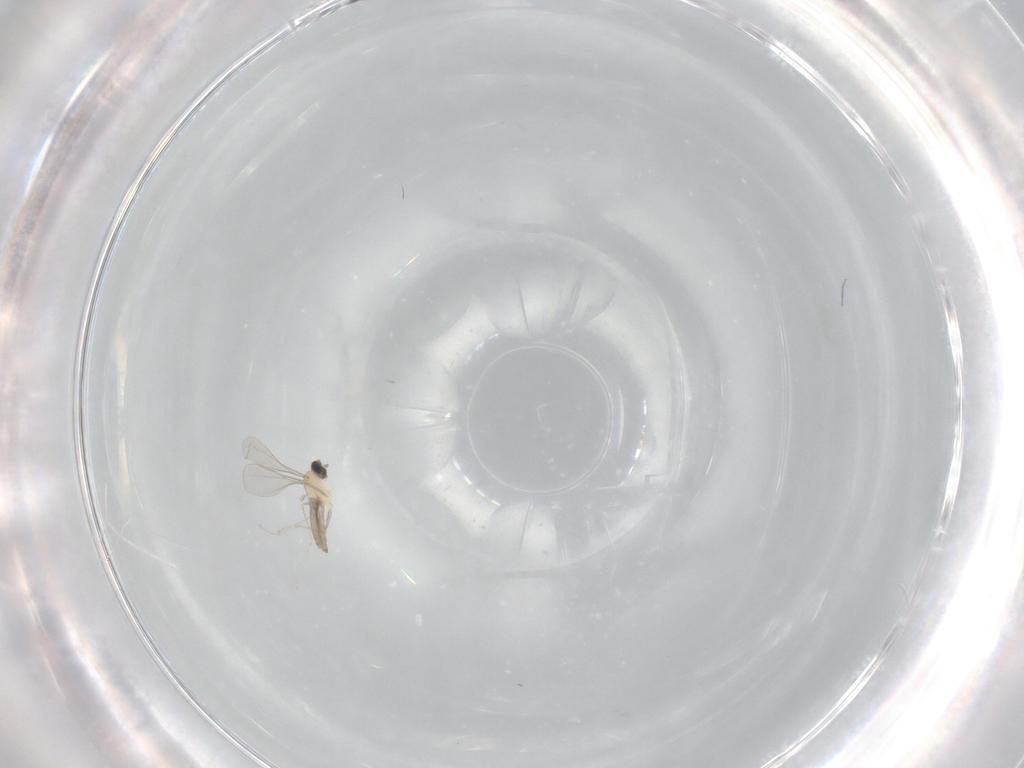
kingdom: Animalia
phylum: Arthropoda
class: Insecta
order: Diptera
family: Cecidomyiidae
